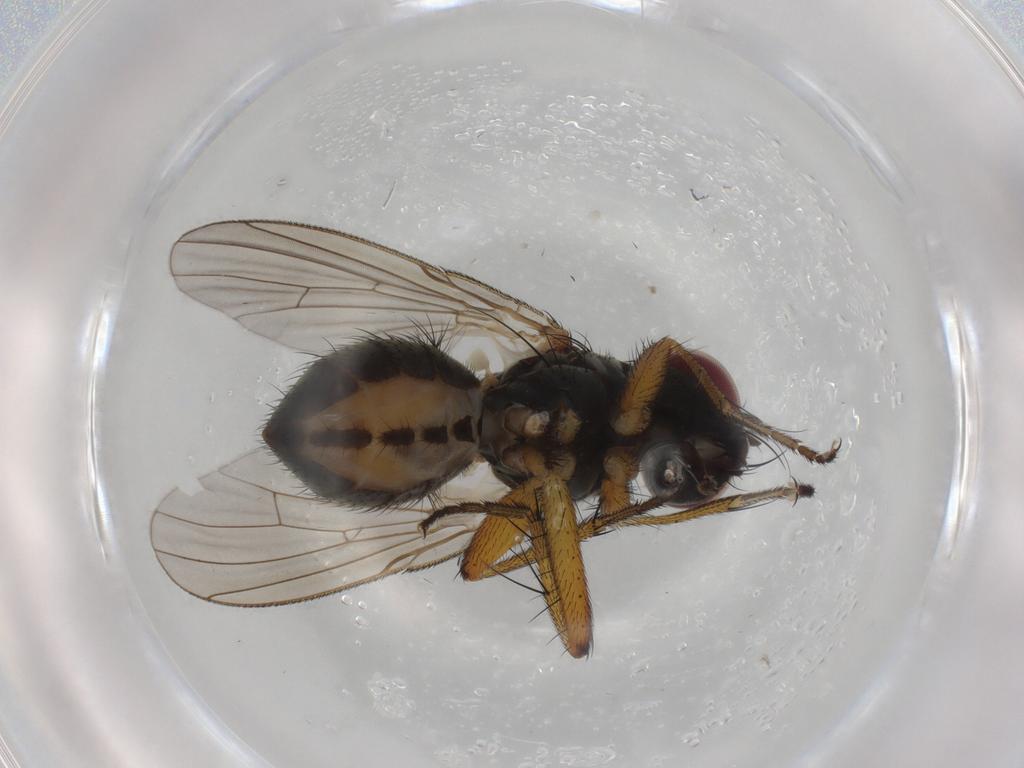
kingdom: Animalia
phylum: Arthropoda
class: Insecta
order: Diptera
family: Muscidae
